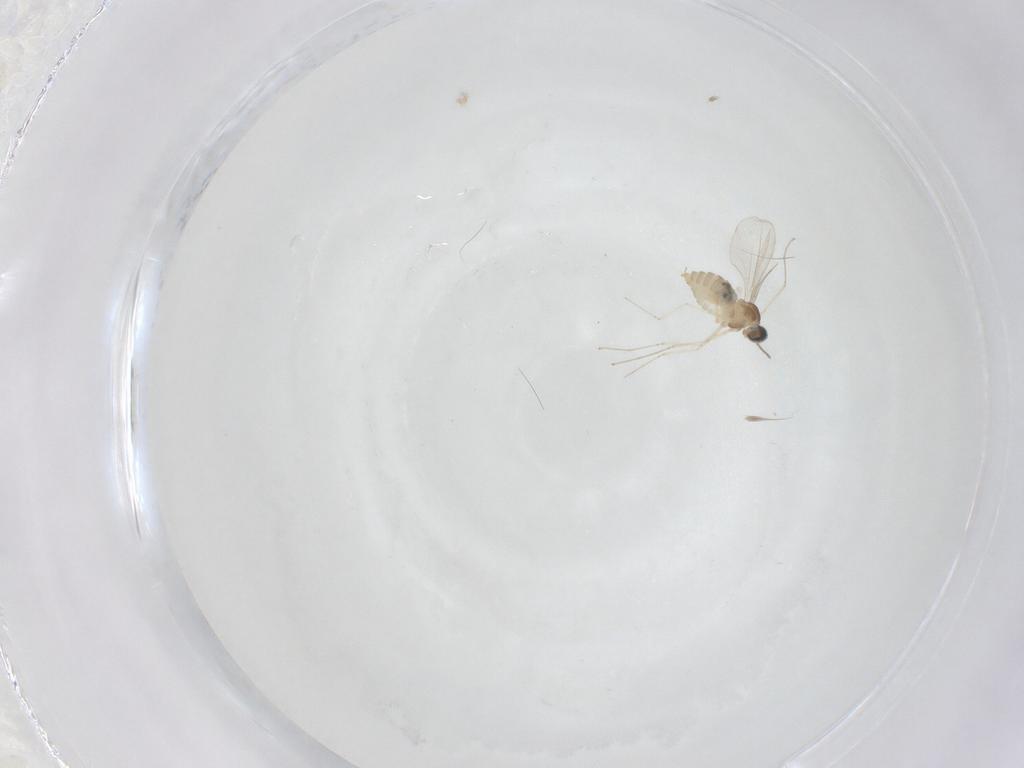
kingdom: Animalia
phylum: Arthropoda
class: Insecta
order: Diptera
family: Cecidomyiidae
